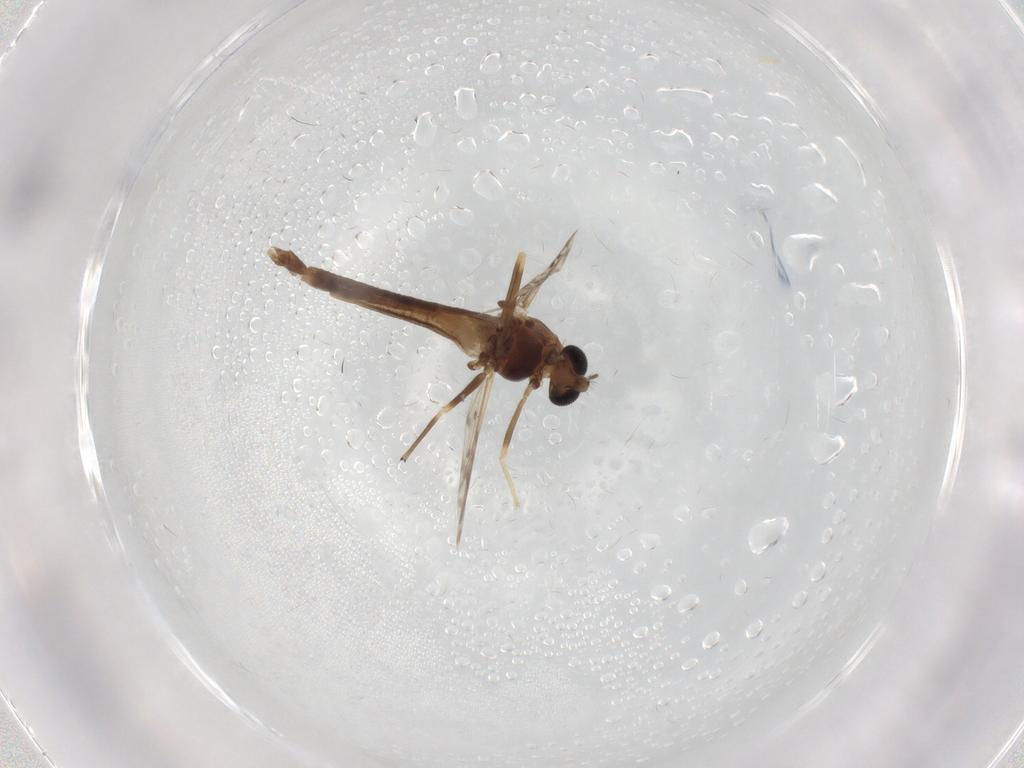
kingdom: Animalia
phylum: Arthropoda
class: Insecta
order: Diptera
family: Chironomidae
